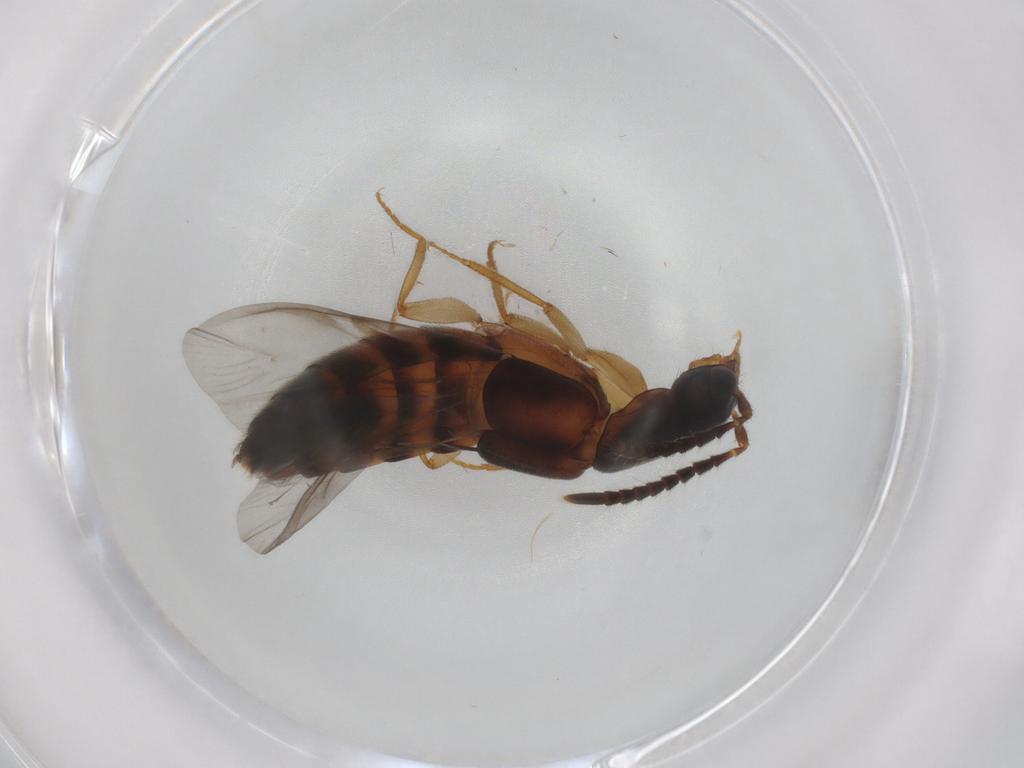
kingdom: Animalia
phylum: Arthropoda
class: Insecta
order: Coleoptera
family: Staphylinidae
